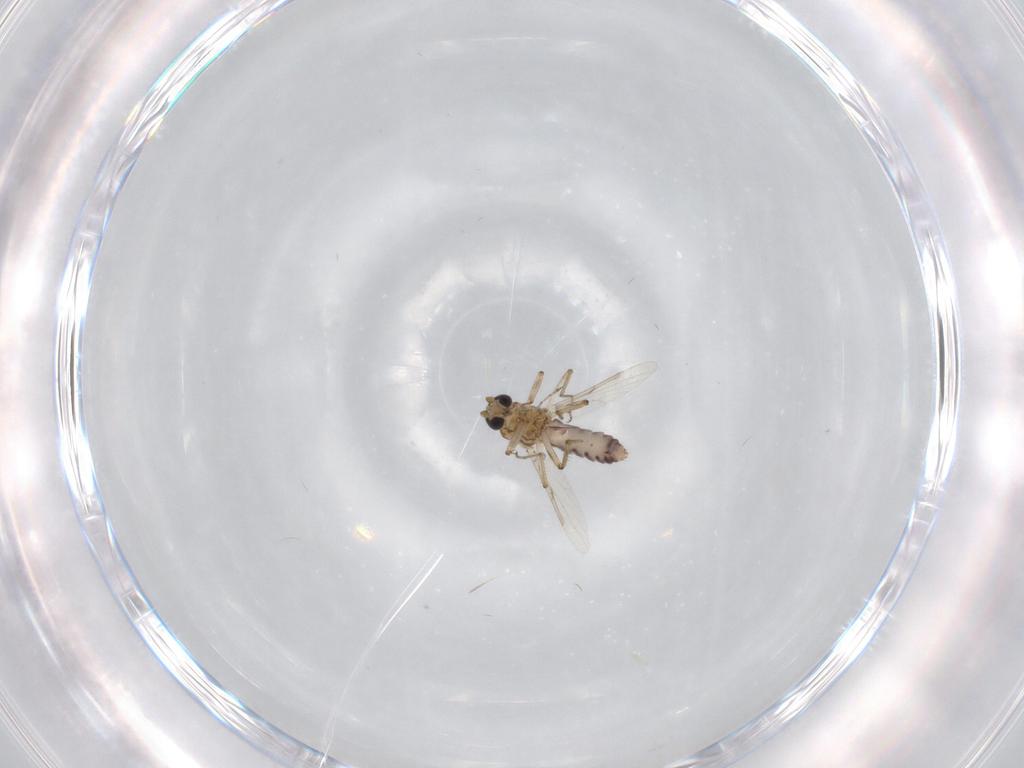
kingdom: Animalia
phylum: Arthropoda
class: Insecta
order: Diptera
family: Ceratopogonidae
